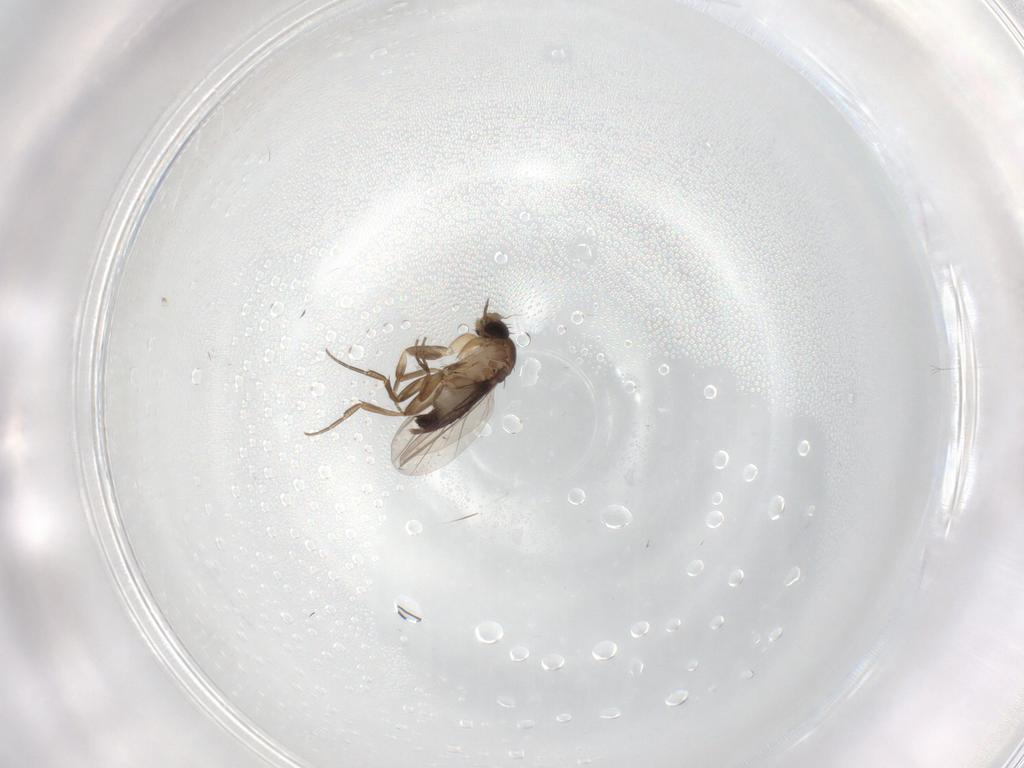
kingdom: Animalia
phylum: Arthropoda
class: Insecta
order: Diptera
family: Phoridae
